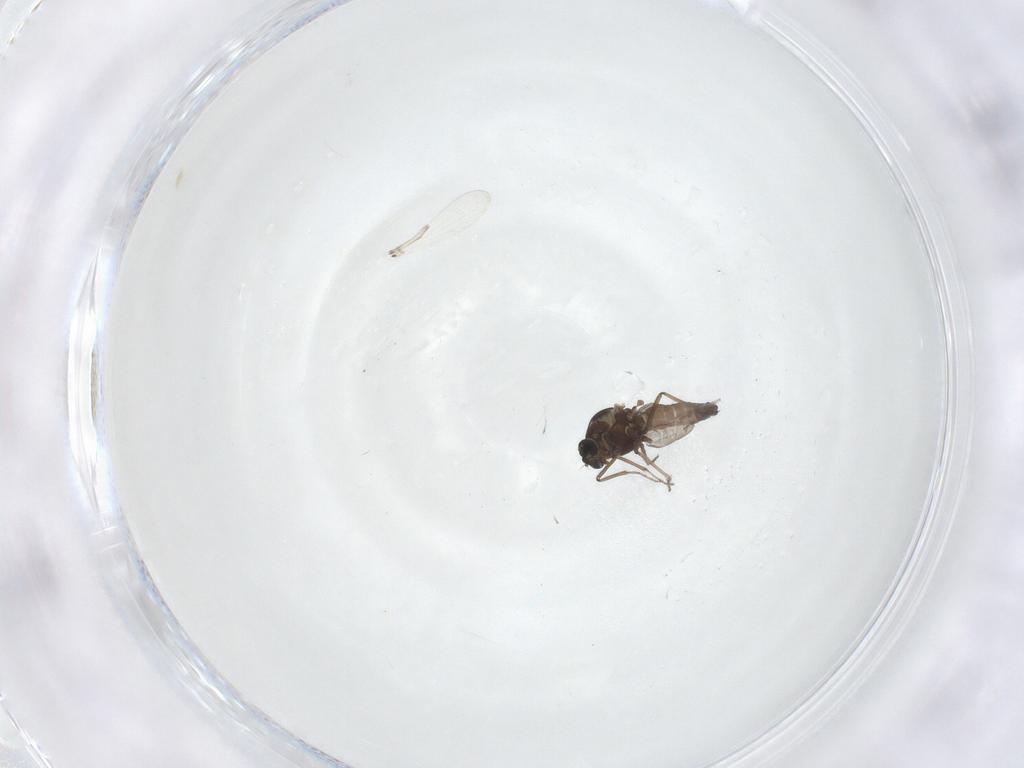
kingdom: Animalia
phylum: Arthropoda
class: Insecta
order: Diptera
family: Ceratopogonidae
